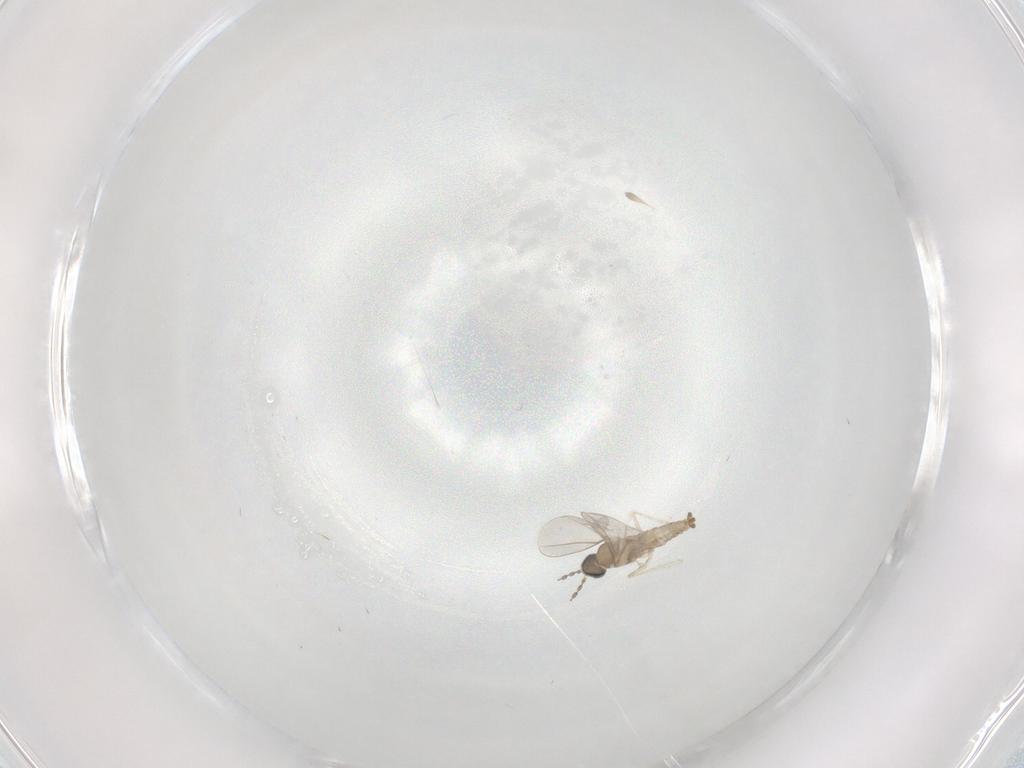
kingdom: Animalia
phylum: Arthropoda
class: Insecta
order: Diptera
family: Cecidomyiidae
